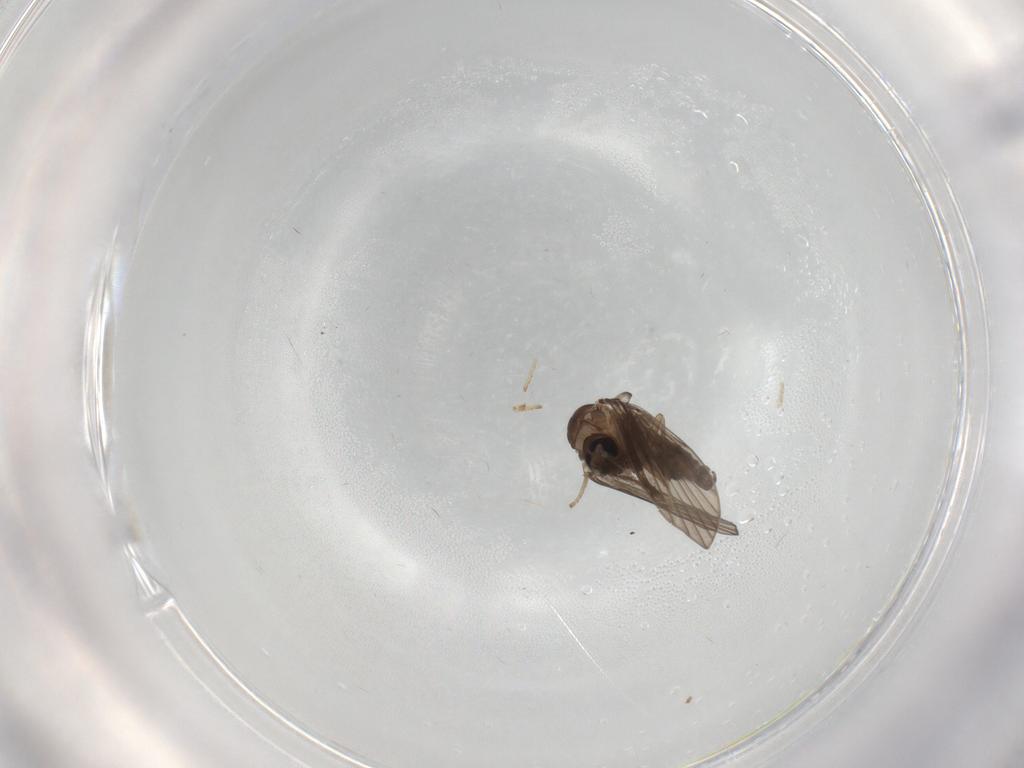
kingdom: Animalia
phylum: Arthropoda
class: Insecta
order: Diptera
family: Psychodidae
